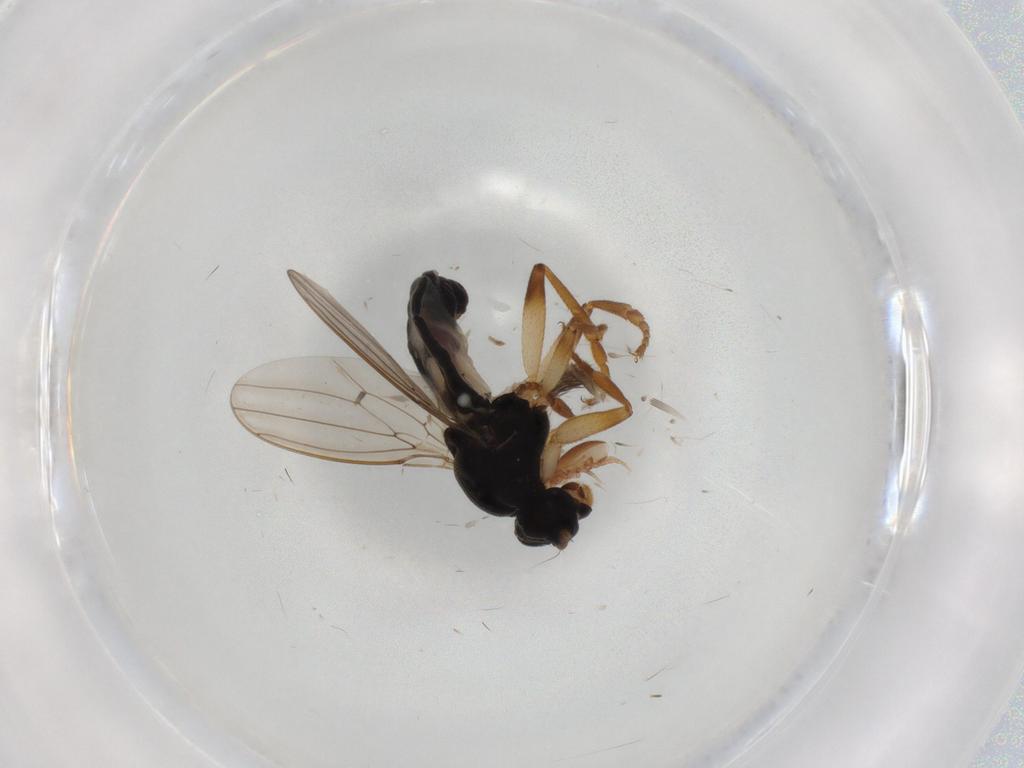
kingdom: Animalia
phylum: Arthropoda
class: Insecta
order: Diptera
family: Sphaeroceridae
